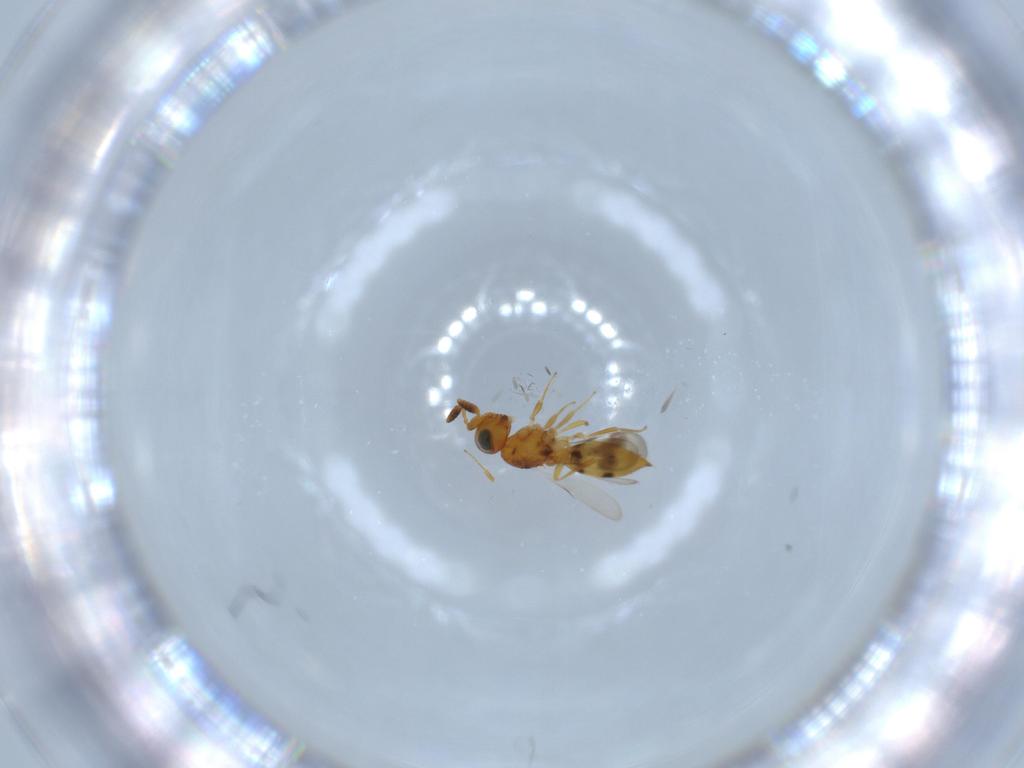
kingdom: Animalia
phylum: Arthropoda
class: Insecta
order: Hymenoptera
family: Scelionidae
